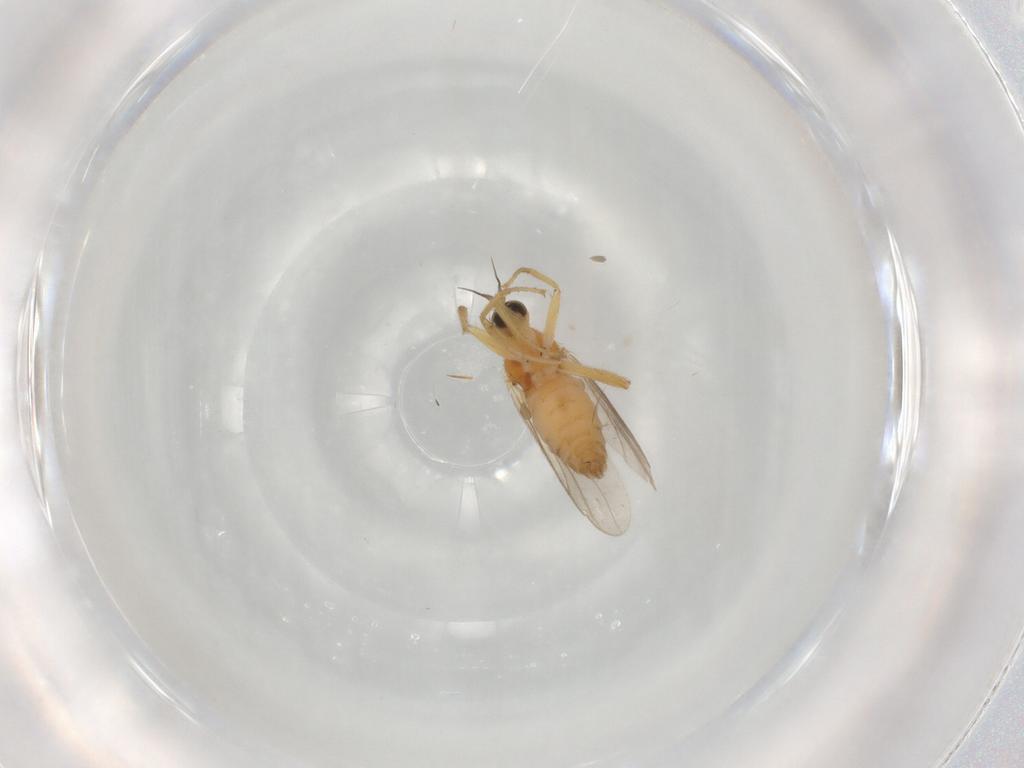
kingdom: Animalia
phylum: Arthropoda
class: Insecta
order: Diptera
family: Hybotidae
